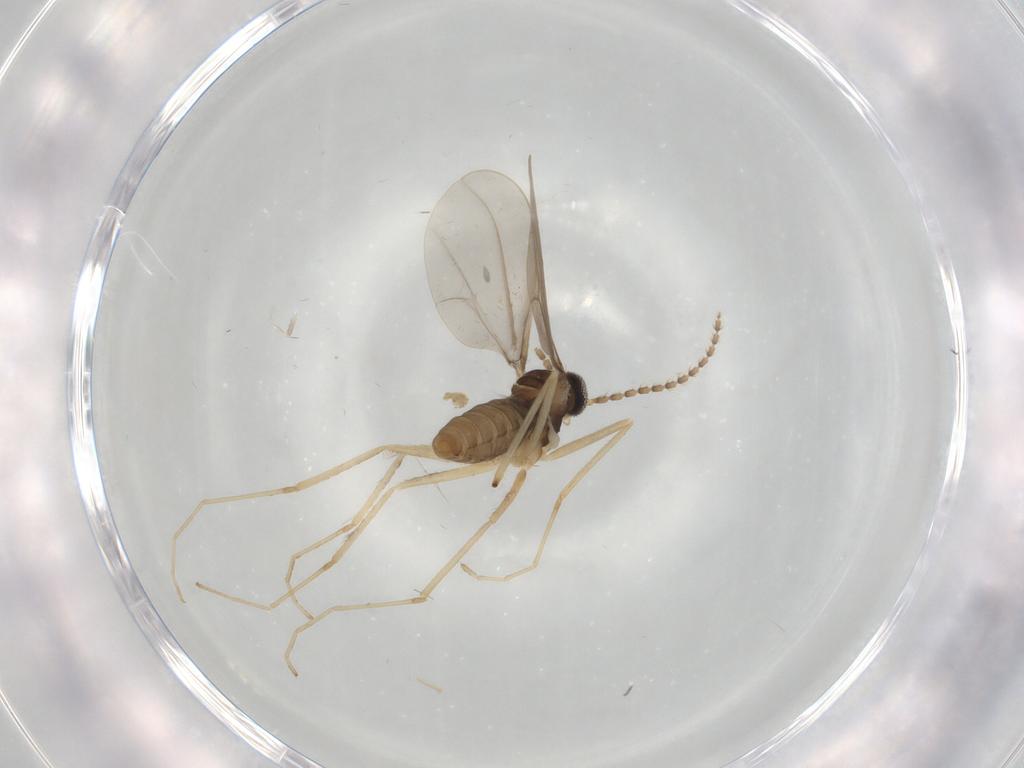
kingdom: Animalia
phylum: Arthropoda
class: Insecta
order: Diptera
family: Cecidomyiidae
